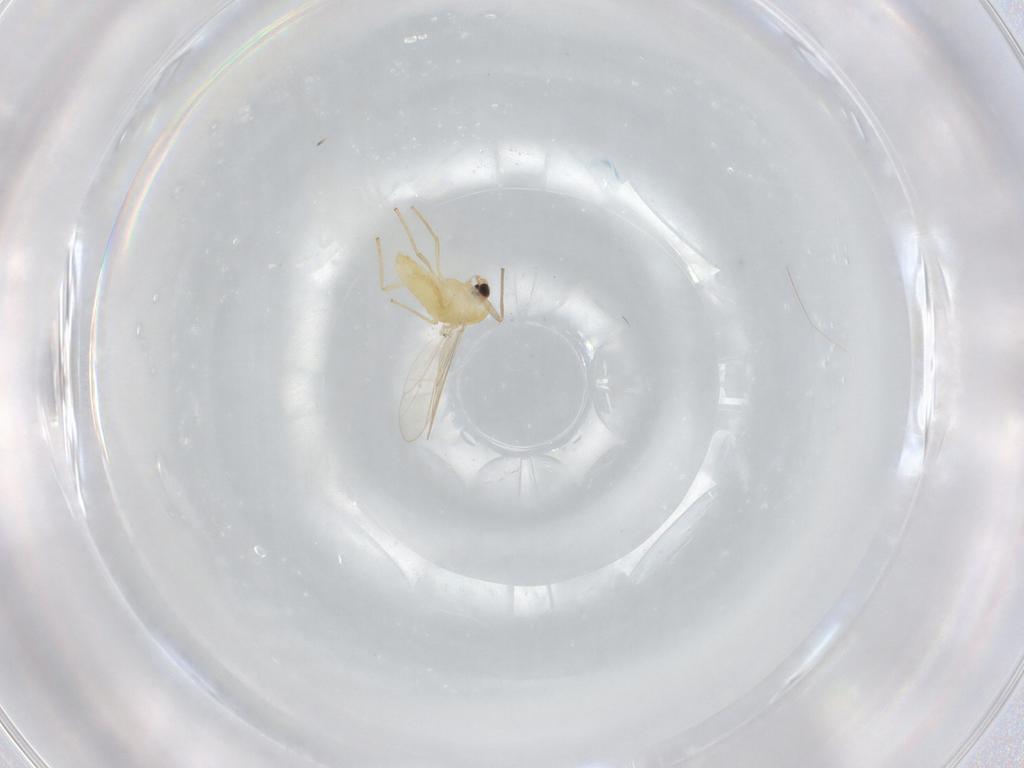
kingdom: Animalia
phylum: Arthropoda
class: Insecta
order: Diptera
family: Chironomidae
